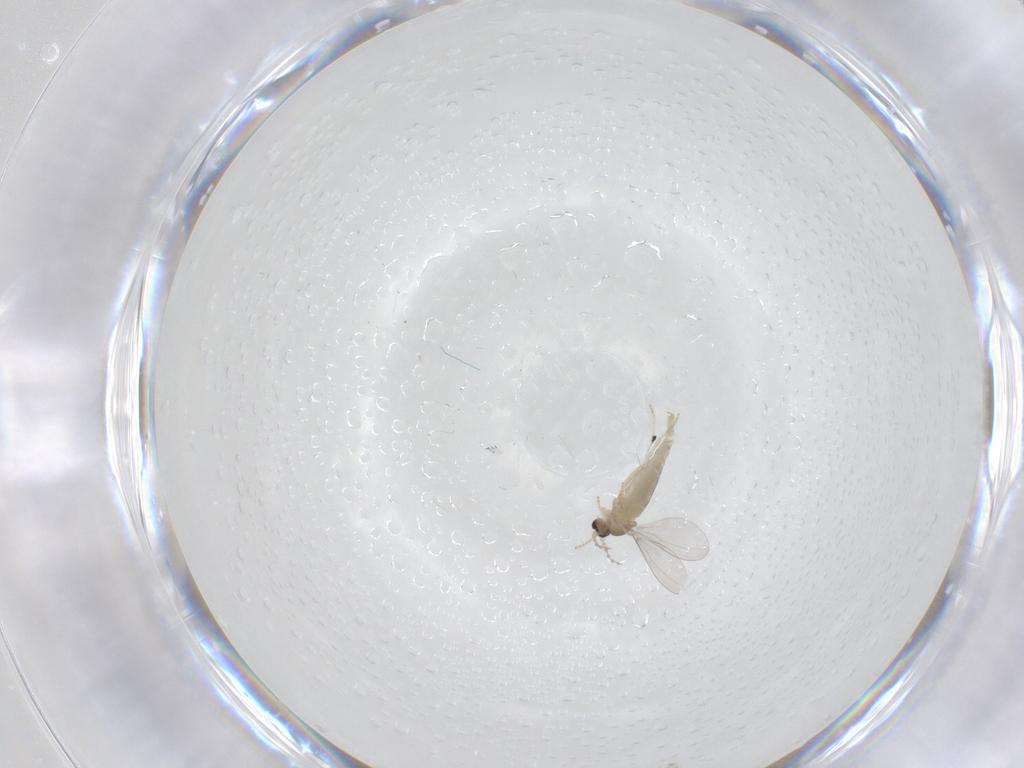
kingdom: Animalia
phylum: Arthropoda
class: Insecta
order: Diptera
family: Cecidomyiidae
